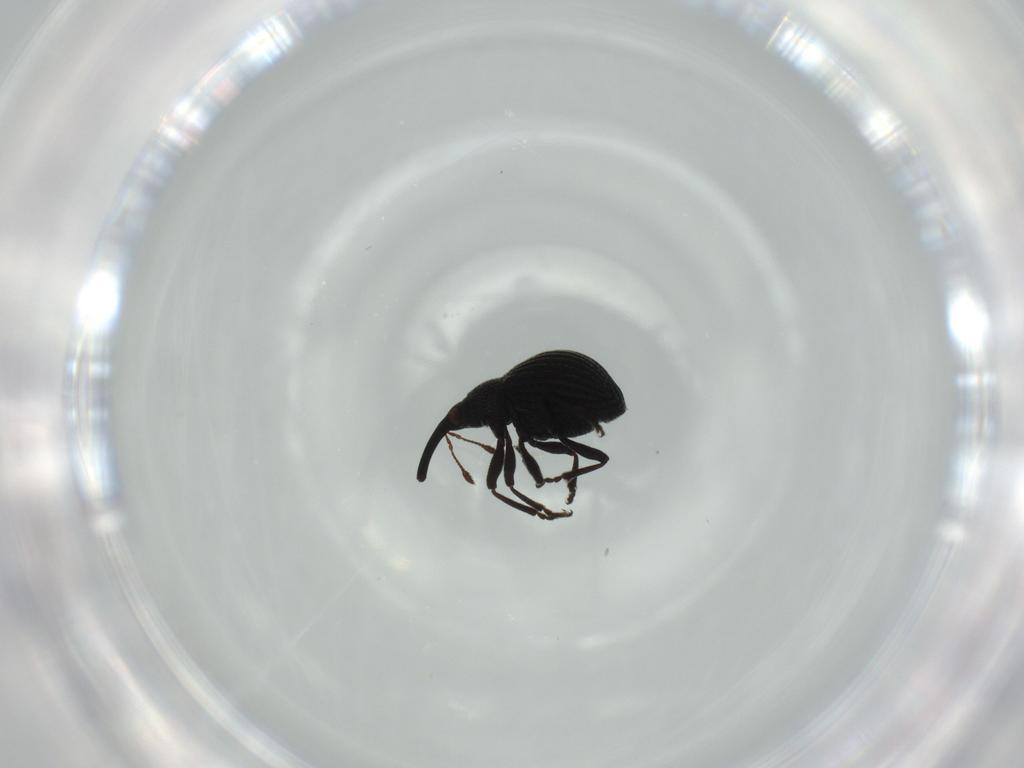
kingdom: Animalia
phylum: Arthropoda
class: Insecta
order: Coleoptera
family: Brentidae
